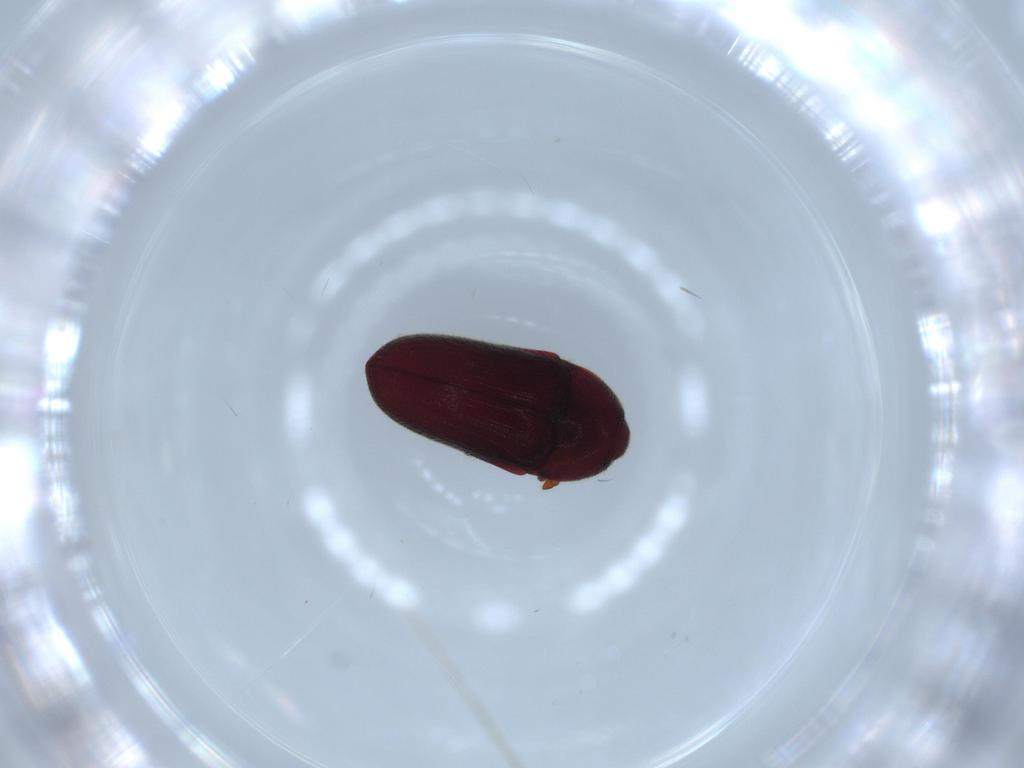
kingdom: Animalia
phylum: Arthropoda
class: Insecta
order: Coleoptera
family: Throscidae
